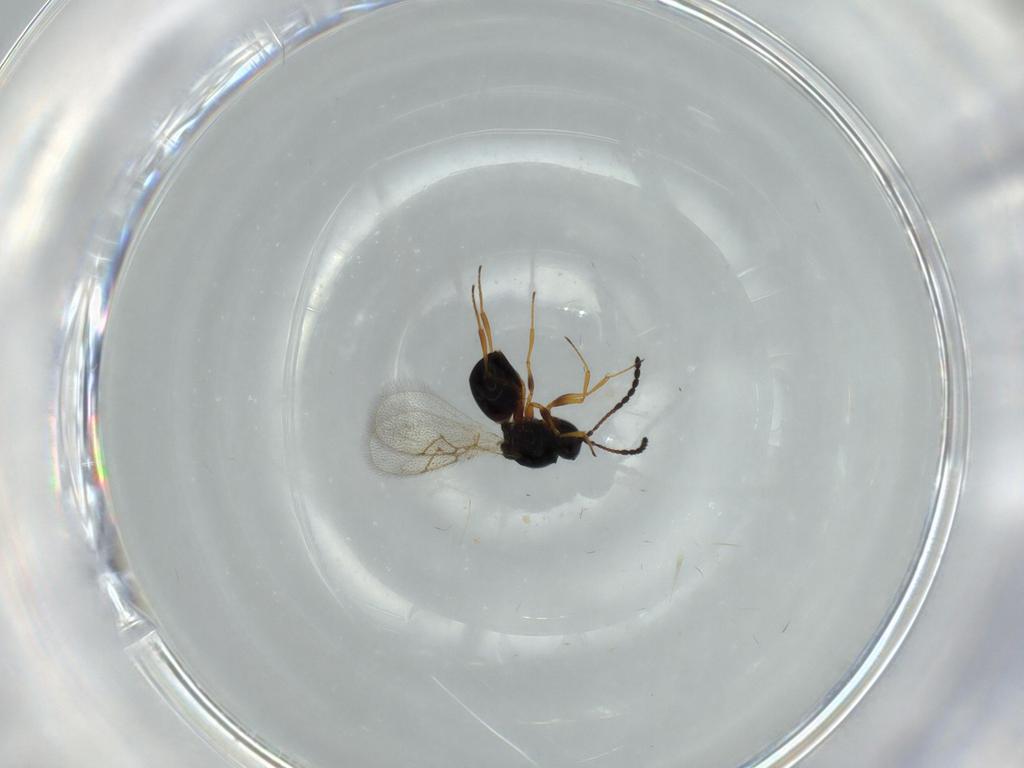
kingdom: Animalia
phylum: Arthropoda
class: Insecta
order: Hymenoptera
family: Figitidae
